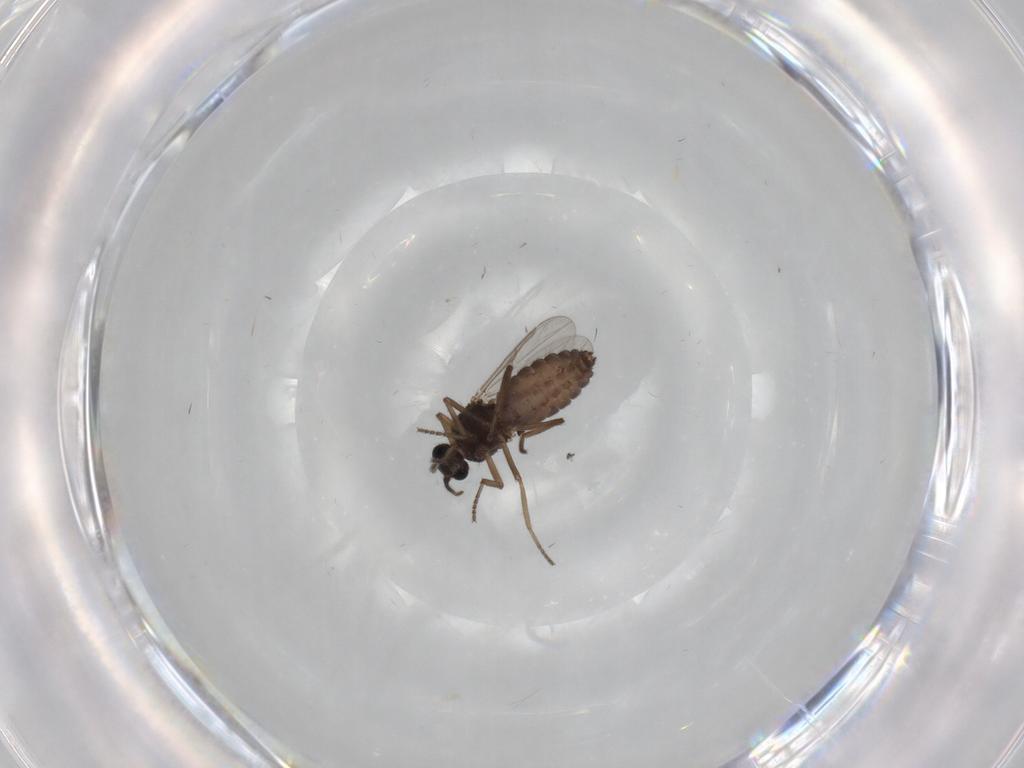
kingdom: Animalia
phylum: Arthropoda
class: Insecta
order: Diptera
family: Ceratopogonidae
